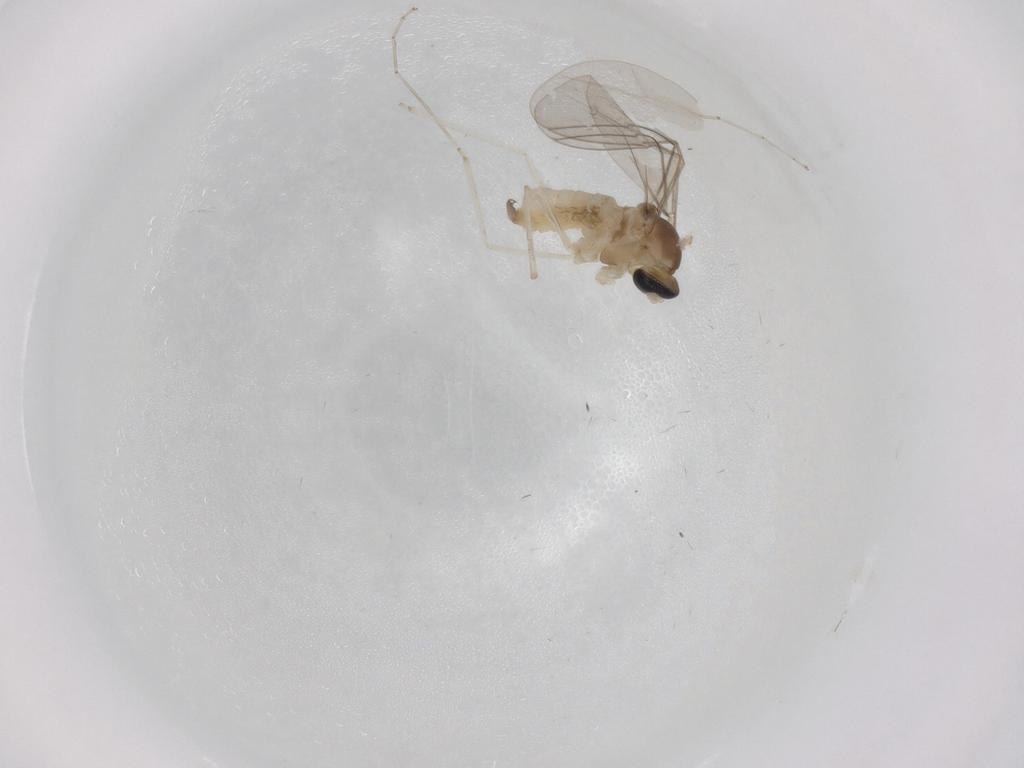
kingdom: Animalia
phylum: Arthropoda
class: Insecta
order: Diptera
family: Cecidomyiidae
